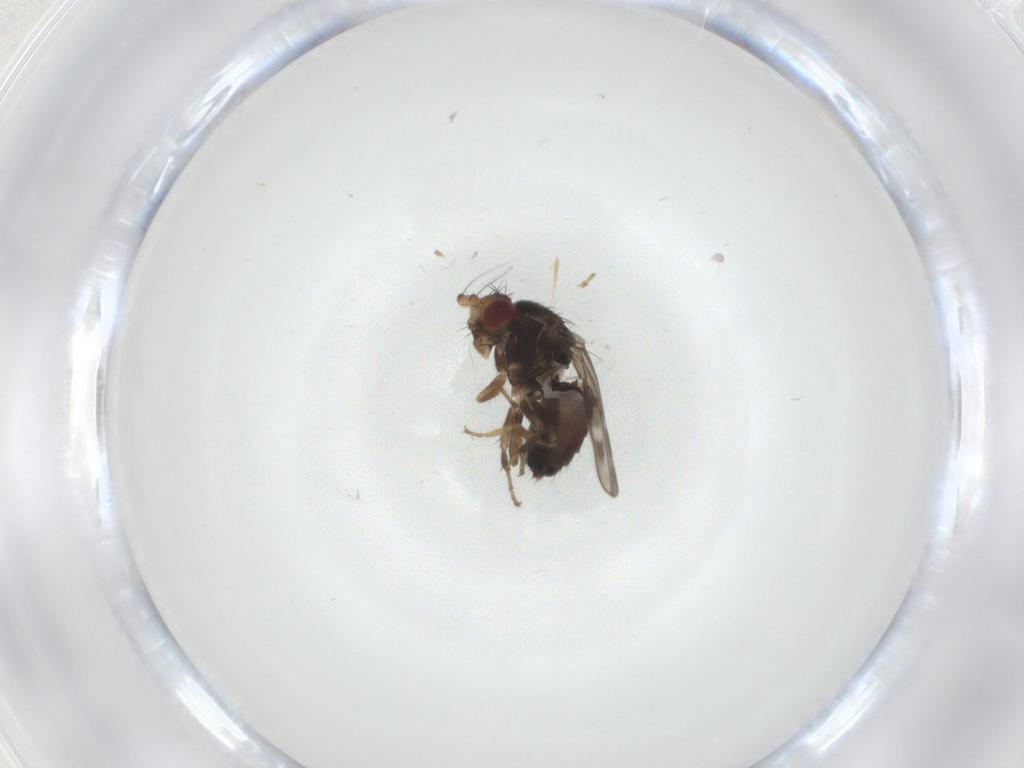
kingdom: Animalia
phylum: Arthropoda
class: Insecta
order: Diptera
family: Sphaeroceridae
